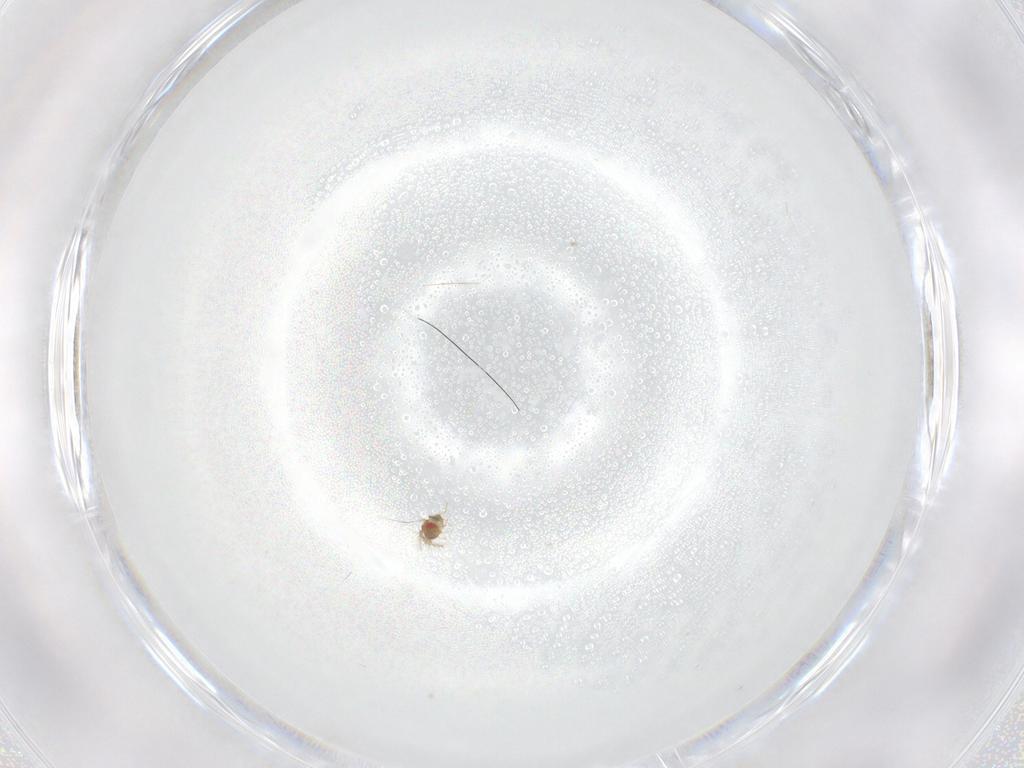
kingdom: Animalia
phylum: Arthropoda
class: Insecta
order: Hymenoptera
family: Trichogrammatidae
